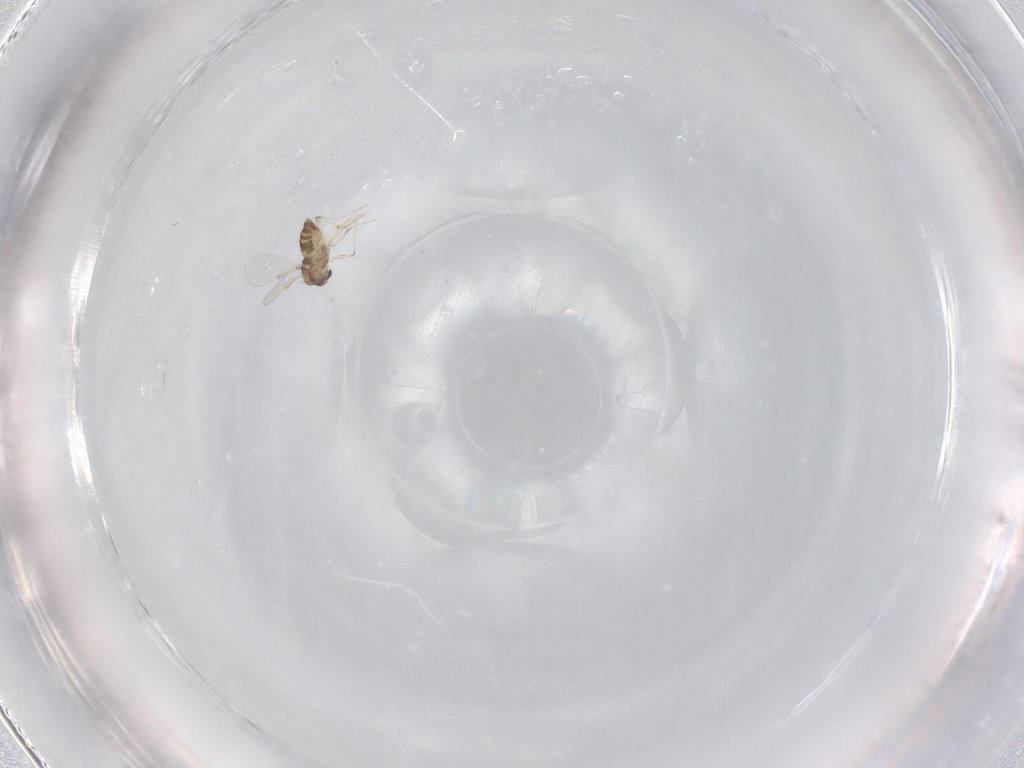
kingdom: Animalia
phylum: Arthropoda
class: Insecta
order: Diptera
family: Chironomidae
